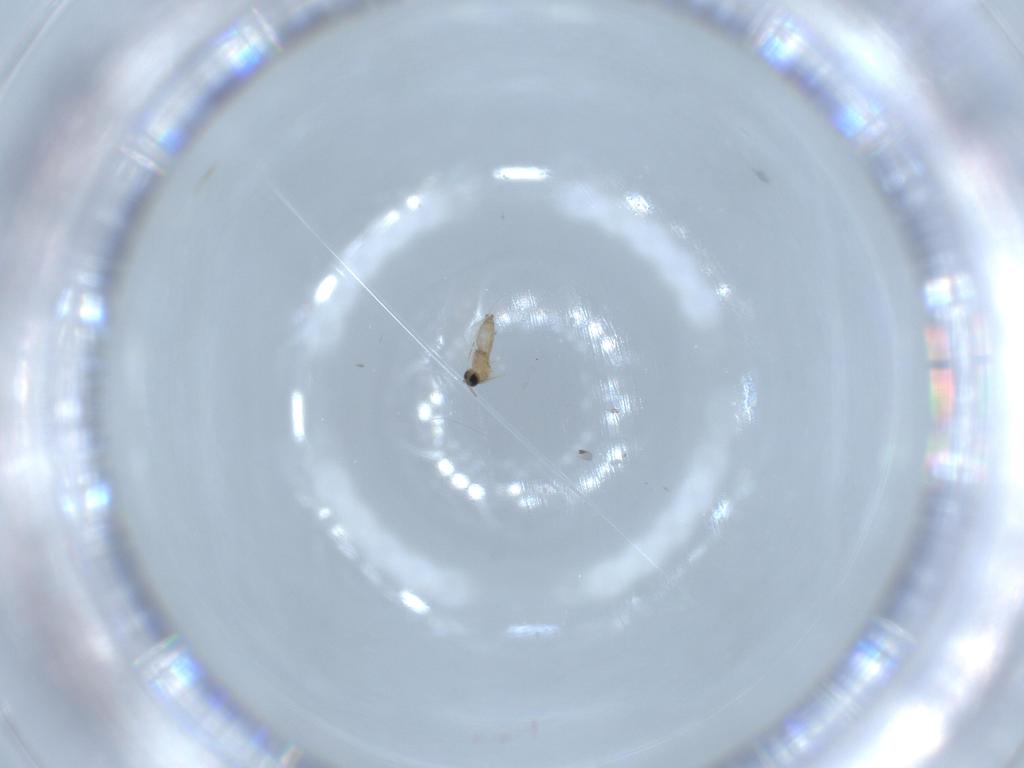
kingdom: Animalia
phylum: Arthropoda
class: Insecta
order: Diptera
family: Cecidomyiidae
